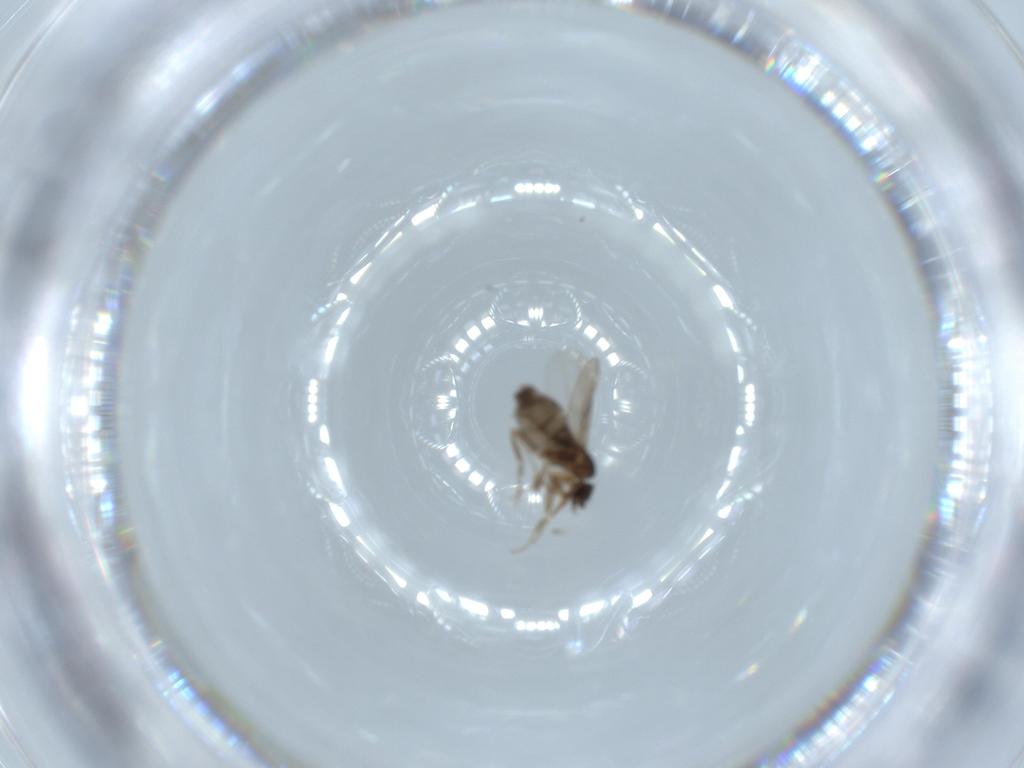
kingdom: Animalia
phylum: Arthropoda
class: Insecta
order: Diptera
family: Phoridae
